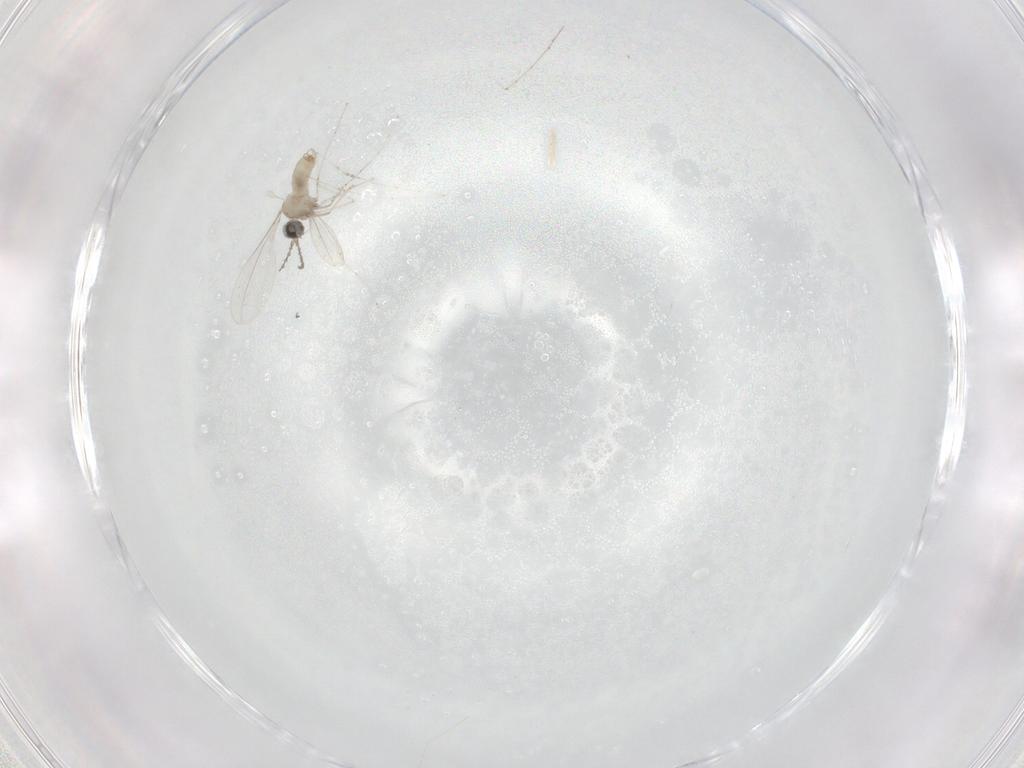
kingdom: Animalia
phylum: Arthropoda
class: Insecta
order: Diptera
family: Cecidomyiidae
